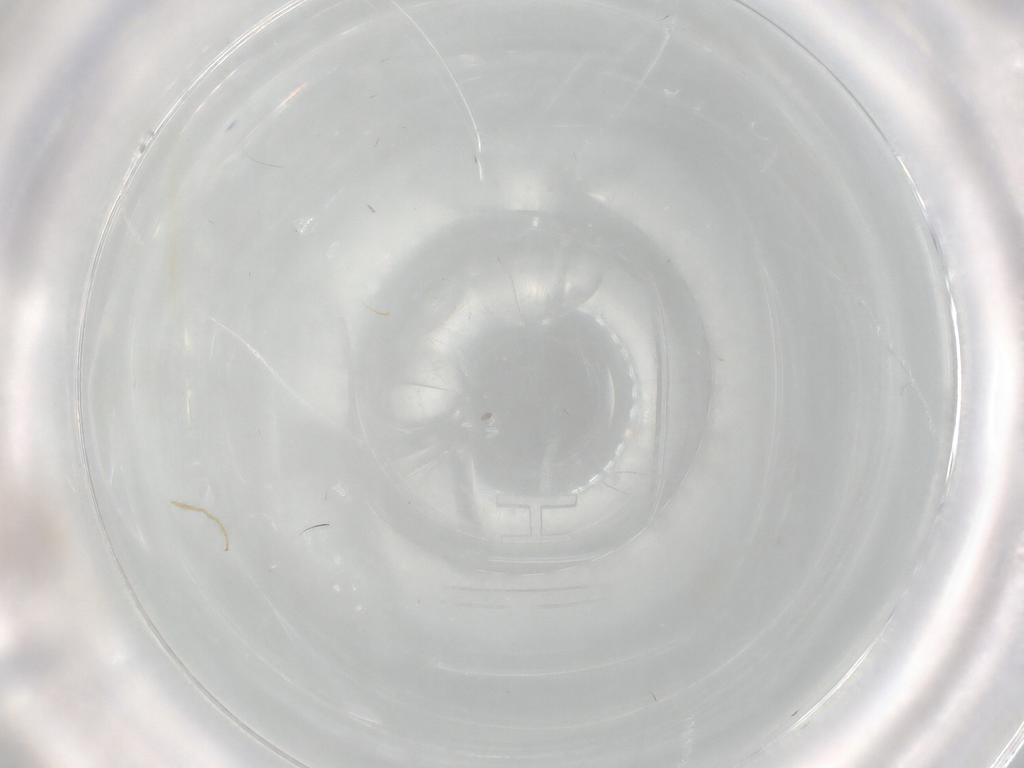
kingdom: Animalia
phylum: Arthropoda
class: Insecta
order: Diptera
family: Chironomidae
